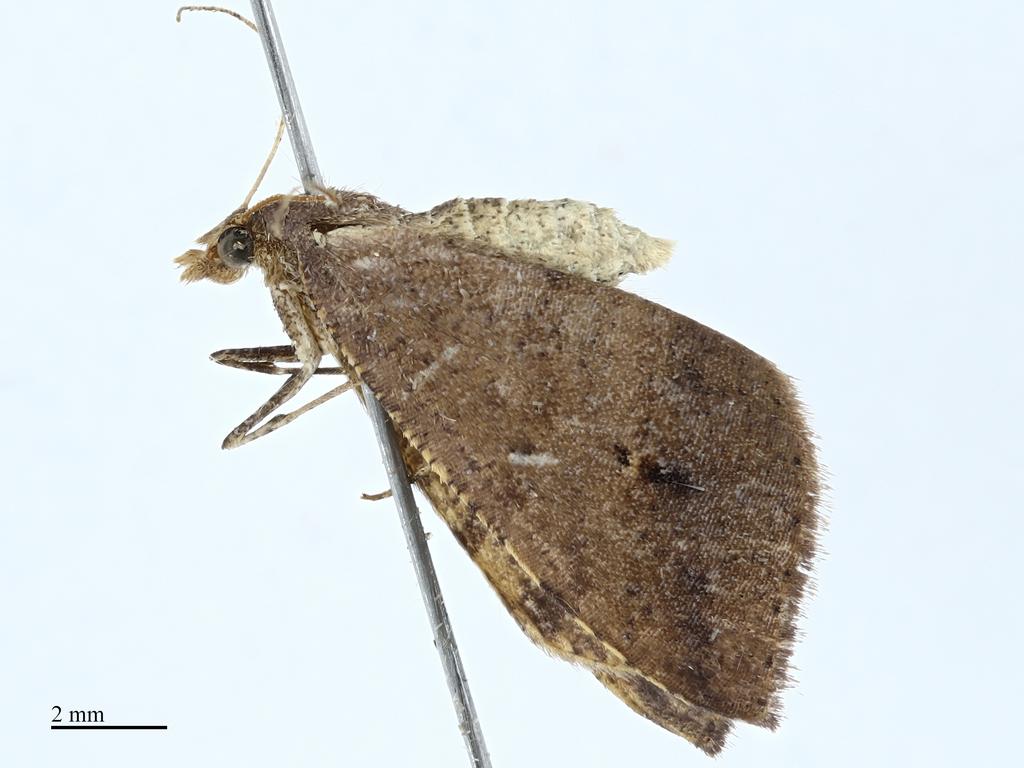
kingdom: Animalia
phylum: Arthropoda
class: Insecta
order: Lepidoptera
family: Geometridae
